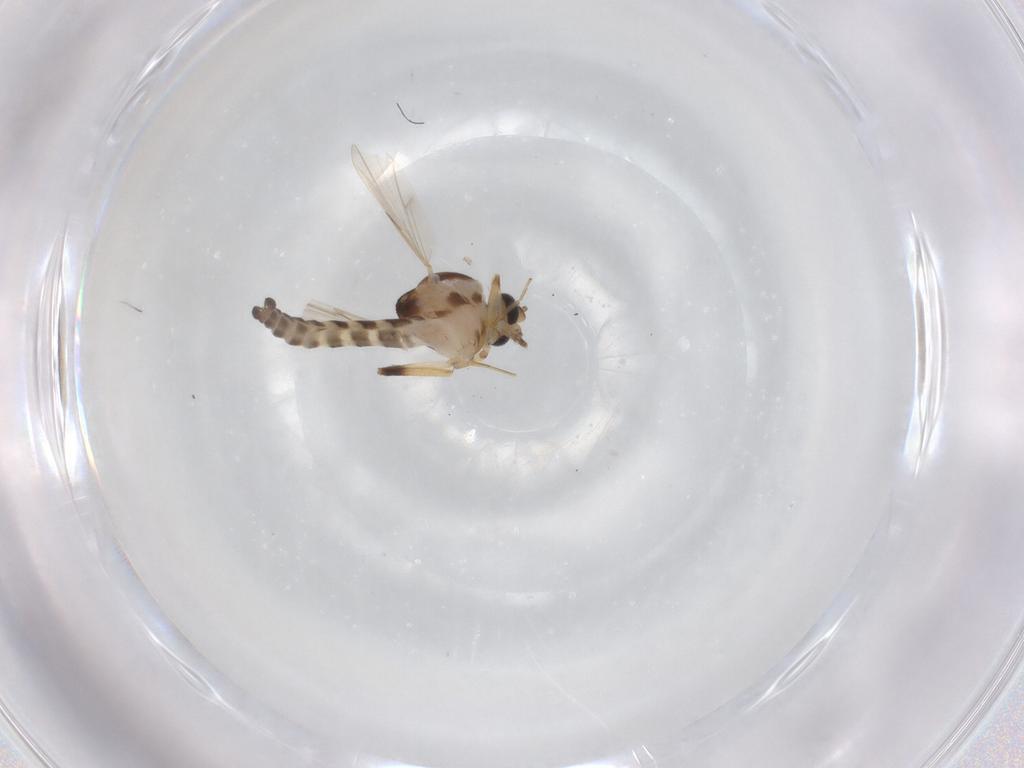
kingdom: Animalia
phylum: Arthropoda
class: Insecta
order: Diptera
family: Ceratopogonidae
